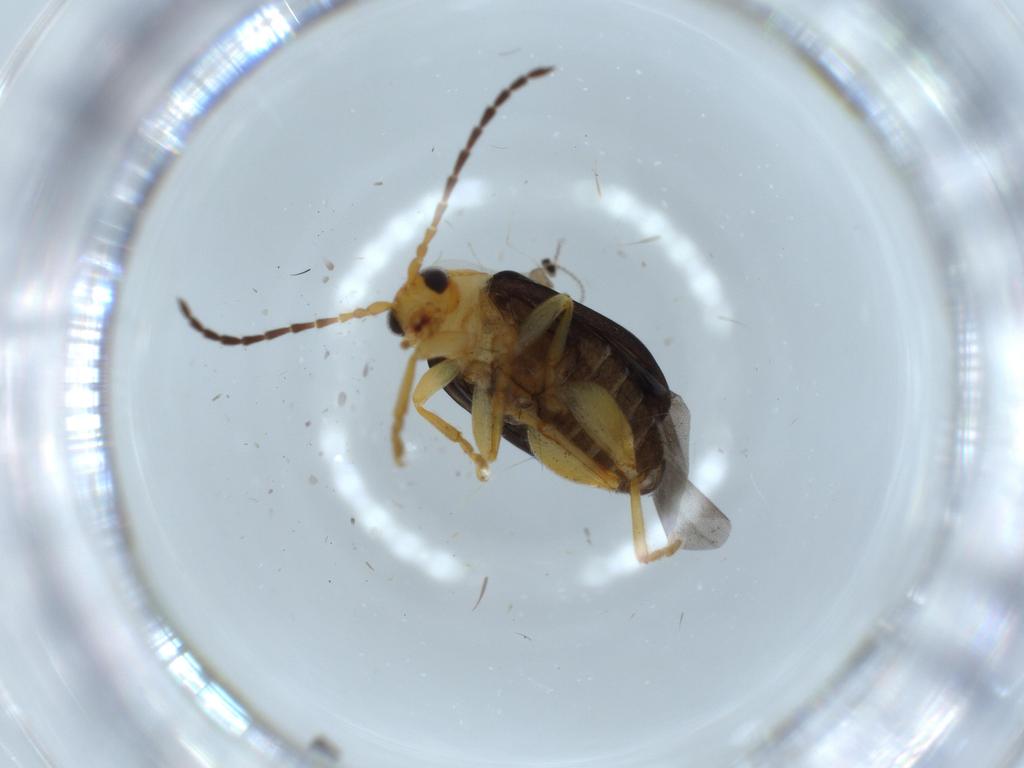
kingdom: Animalia
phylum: Arthropoda
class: Insecta
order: Coleoptera
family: Chrysomelidae
